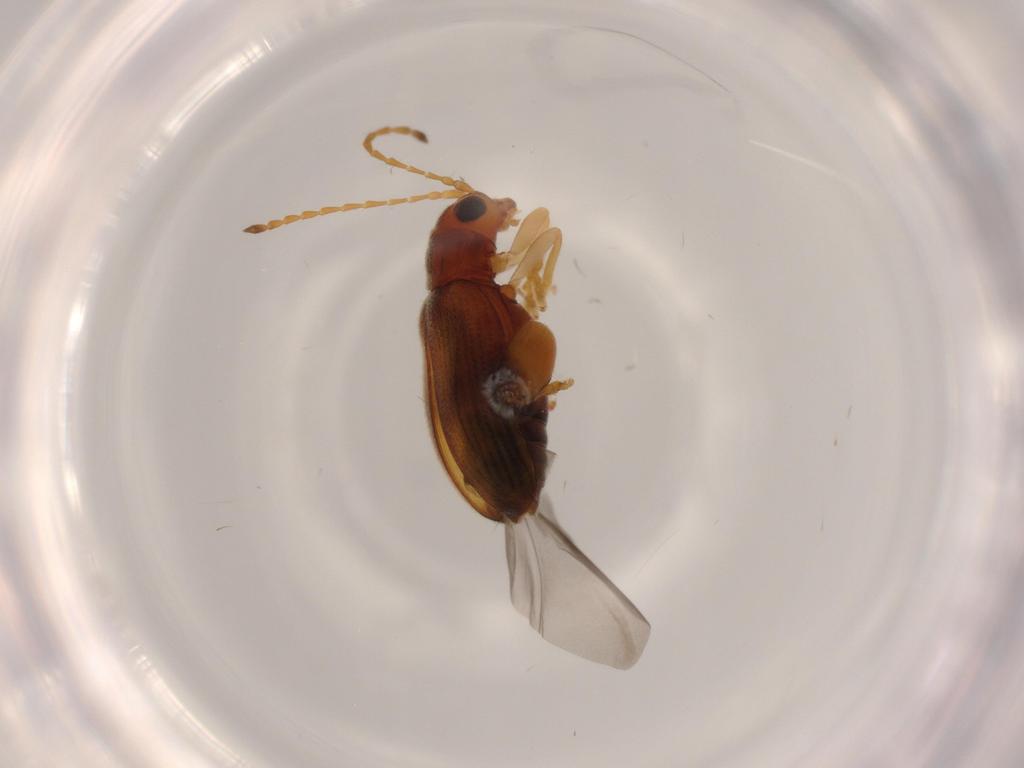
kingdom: Animalia
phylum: Arthropoda
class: Insecta
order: Coleoptera
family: Chrysomelidae
